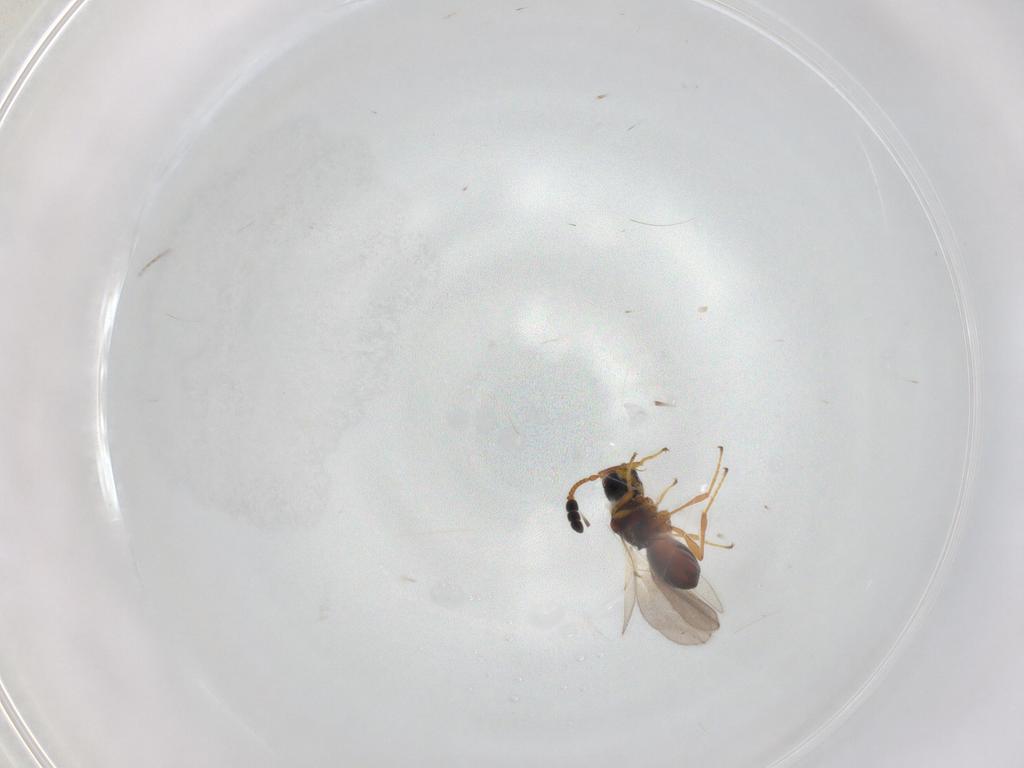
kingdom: Animalia
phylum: Arthropoda
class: Insecta
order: Hymenoptera
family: Diapriidae
